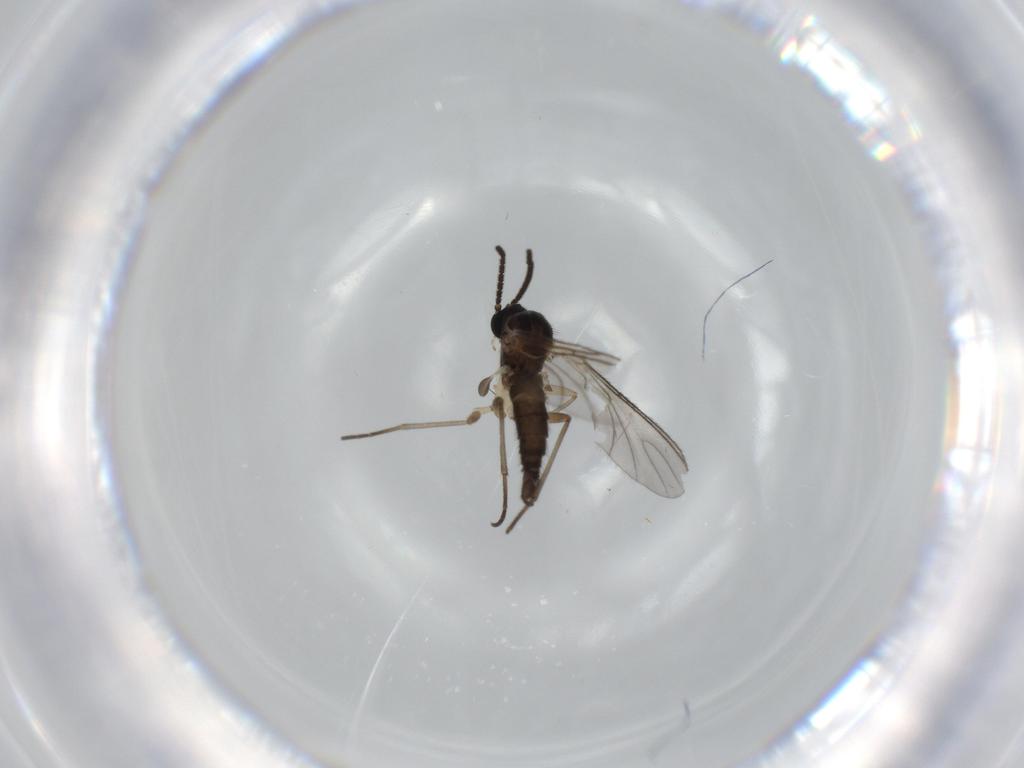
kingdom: Animalia
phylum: Arthropoda
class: Insecta
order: Diptera
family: Sciaridae
